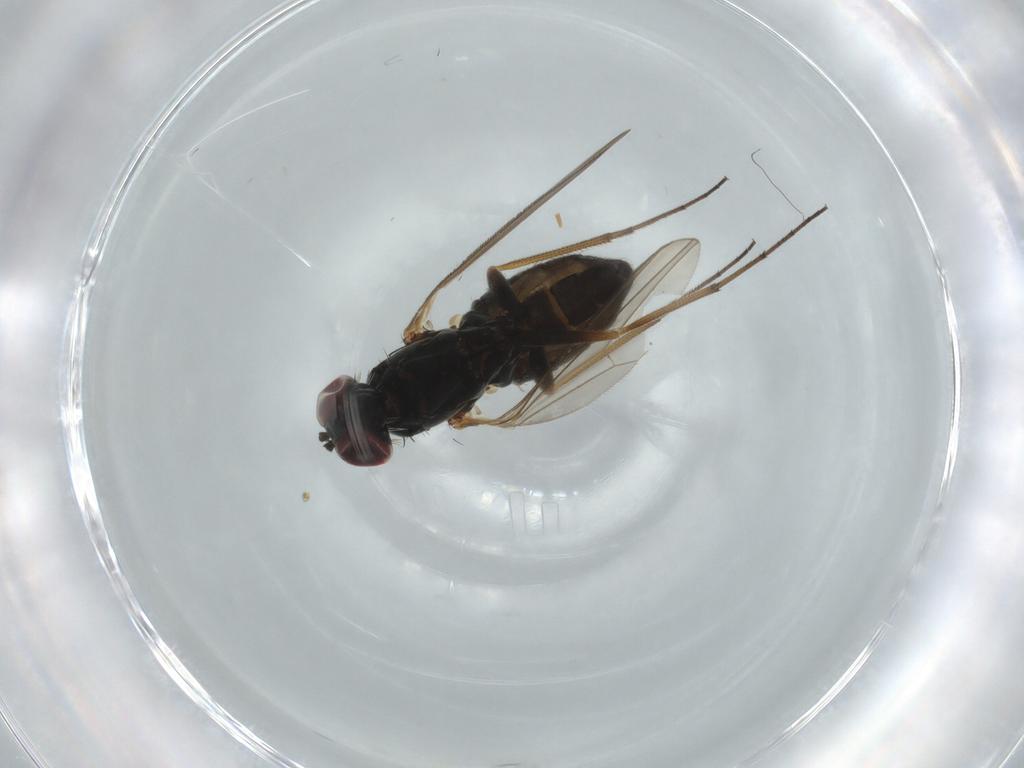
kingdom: Animalia
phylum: Arthropoda
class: Insecta
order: Diptera
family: Dolichopodidae
